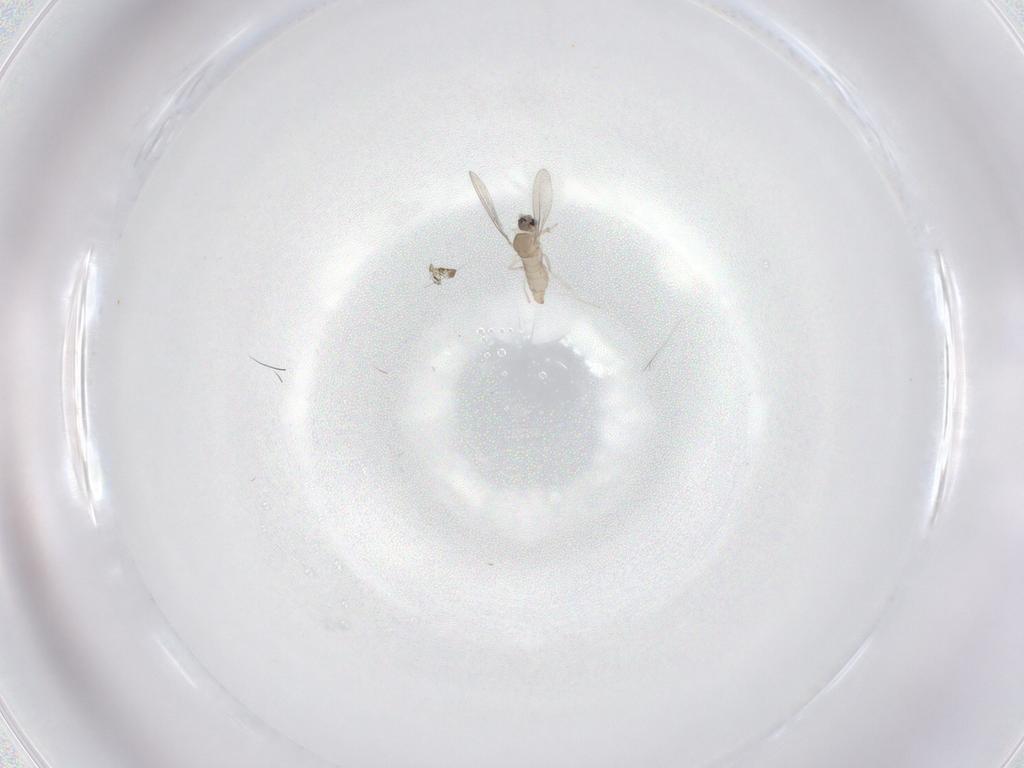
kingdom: Animalia
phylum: Arthropoda
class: Insecta
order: Diptera
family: Cecidomyiidae
